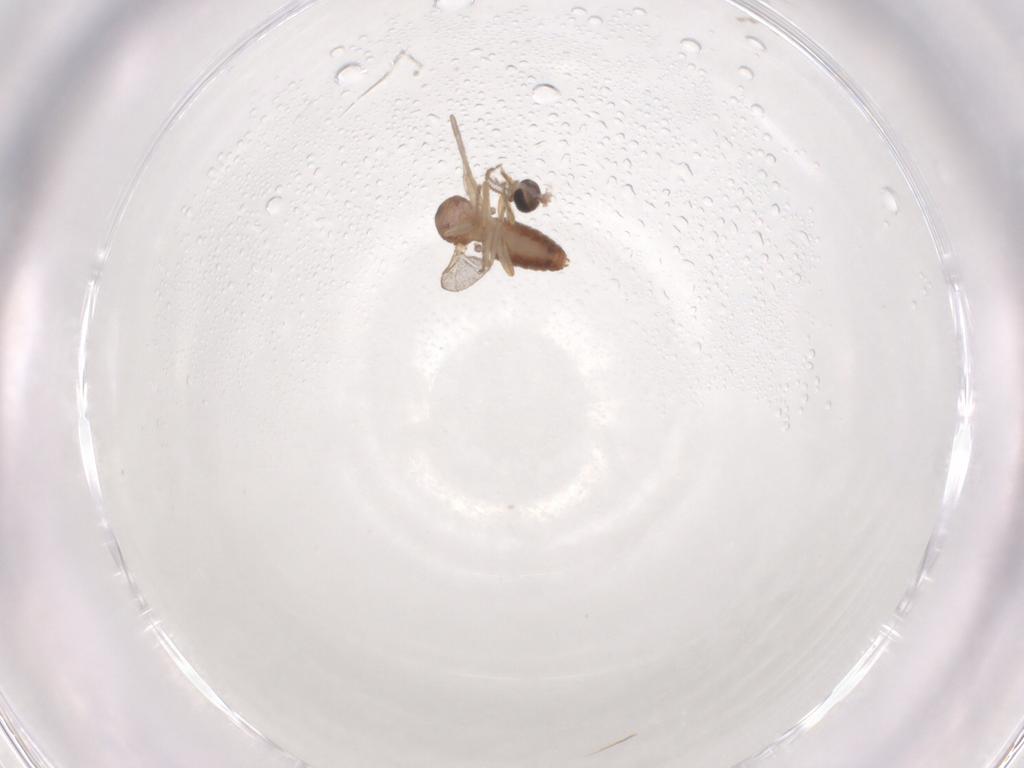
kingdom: Animalia
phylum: Arthropoda
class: Insecta
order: Diptera
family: Ceratopogonidae
